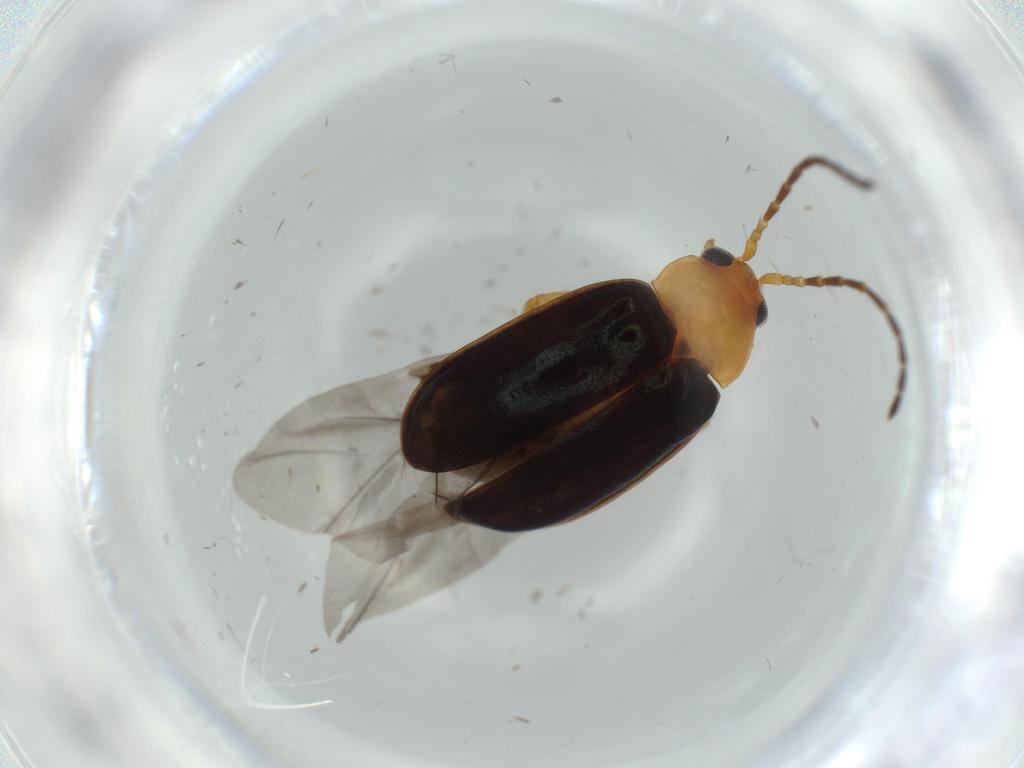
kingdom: Animalia
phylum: Arthropoda
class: Insecta
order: Coleoptera
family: Chrysomelidae
